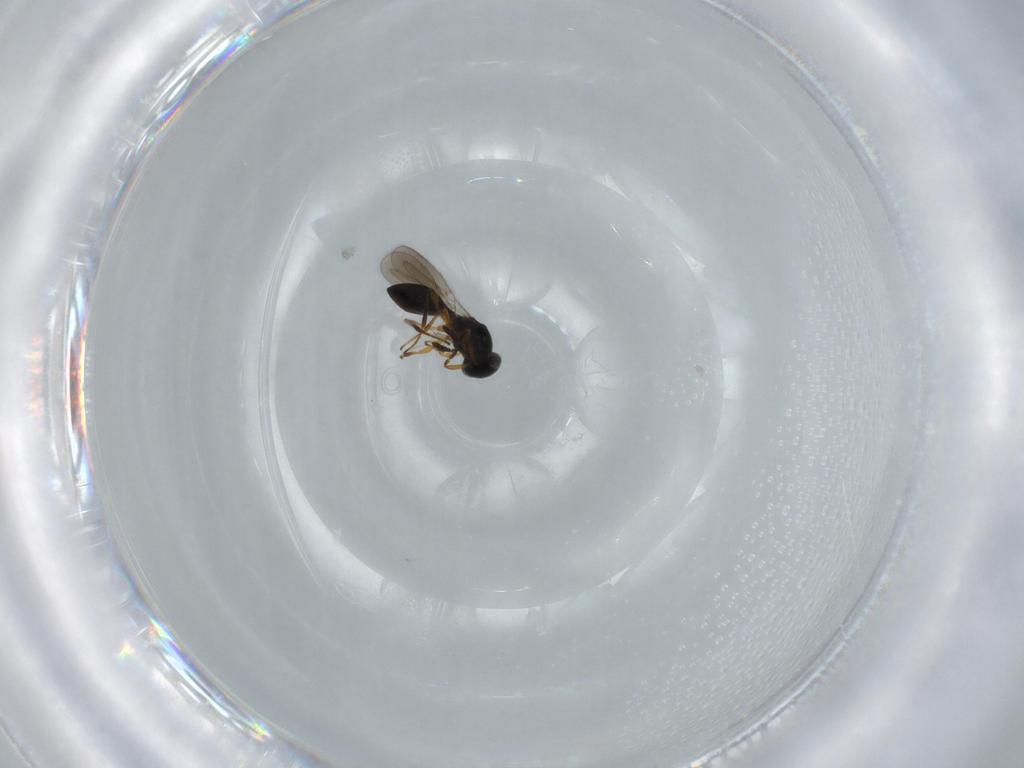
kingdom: Animalia
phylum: Arthropoda
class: Insecta
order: Hymenoptera
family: Platygastridae
